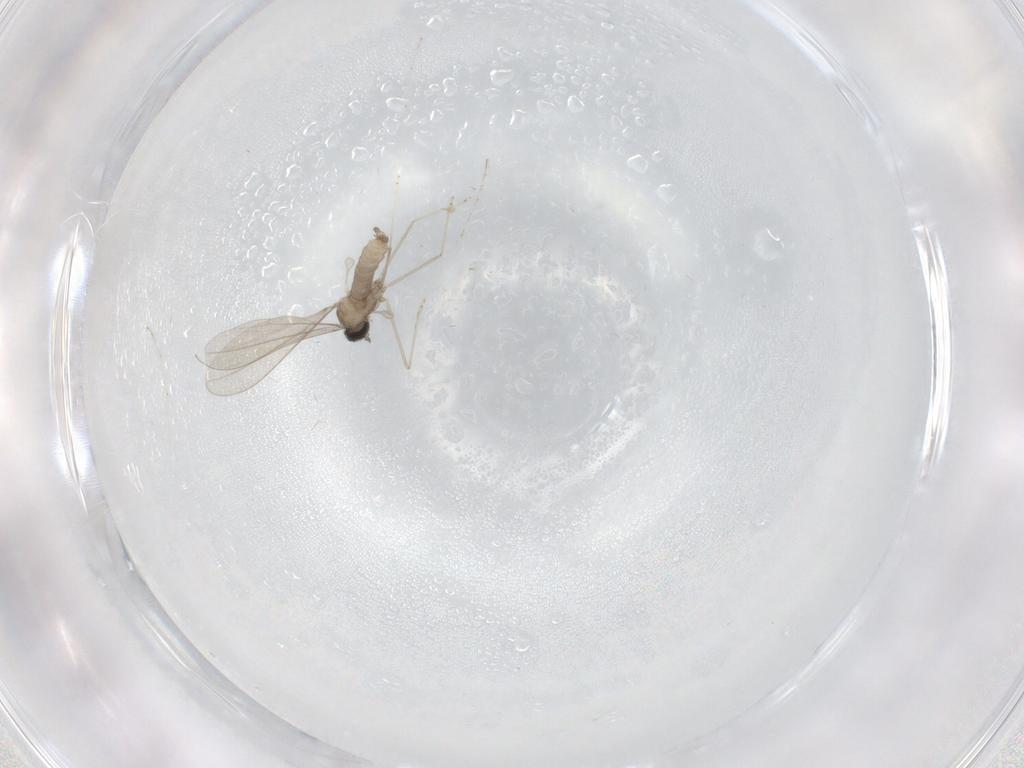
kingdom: Animalia
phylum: Arthropoda
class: Insecta
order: Diptera
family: Cecidomyiidae
